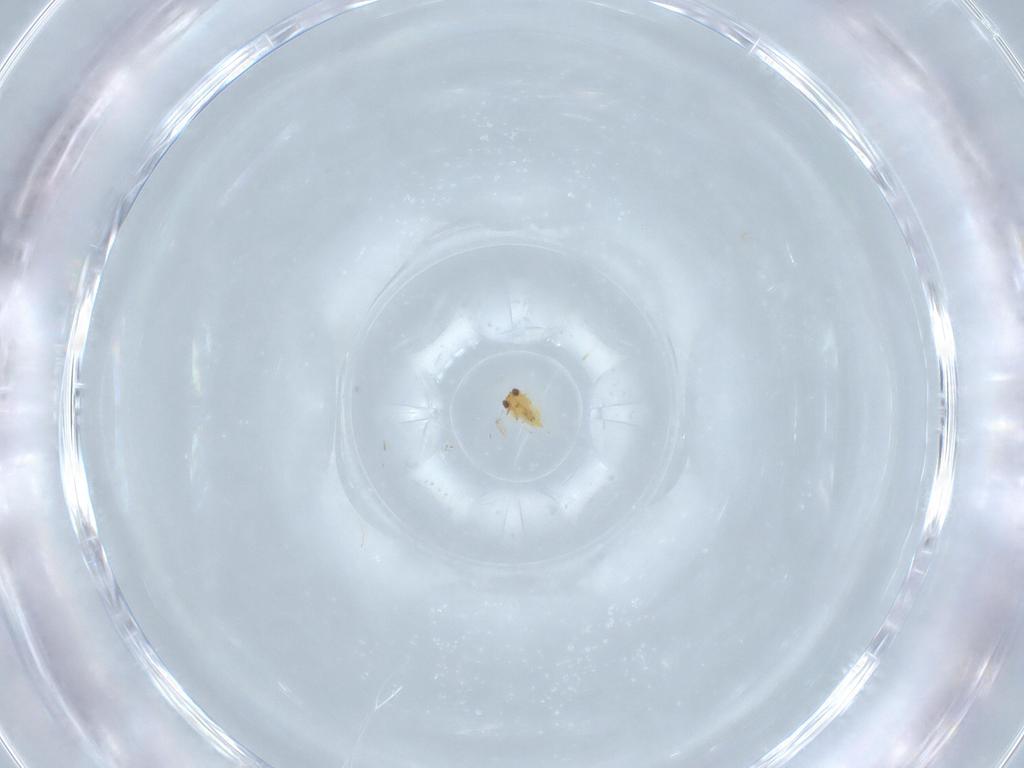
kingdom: Animalia
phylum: Arthropoda
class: Insecta
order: Hymenoptera
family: Aphelinidae
